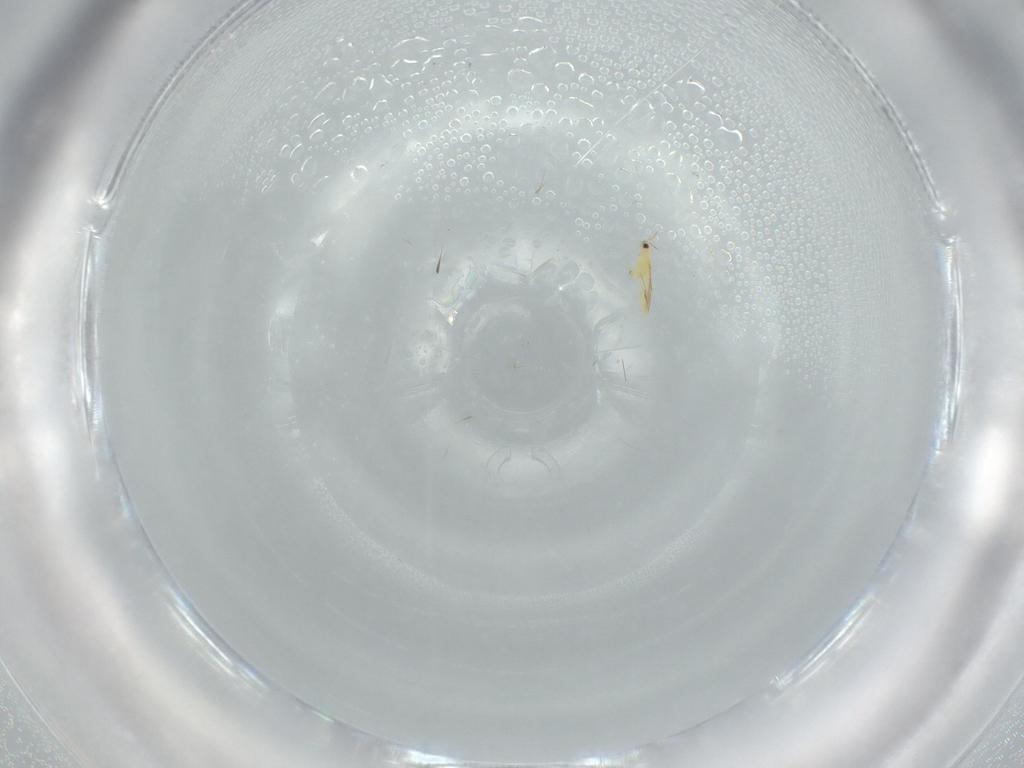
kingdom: Animalia
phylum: Arthropoda
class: Insecta
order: Thysanoptera
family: Thripidae
